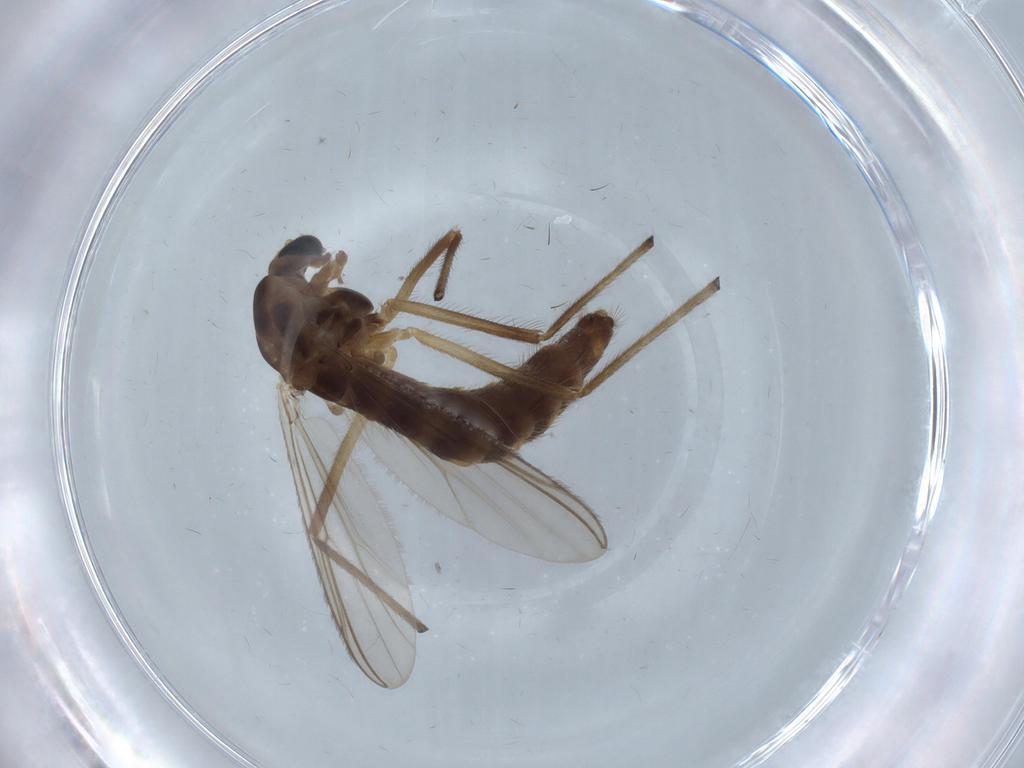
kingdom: Animalia
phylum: Arthropoda
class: Insecta
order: Diptera
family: Chironomidae
